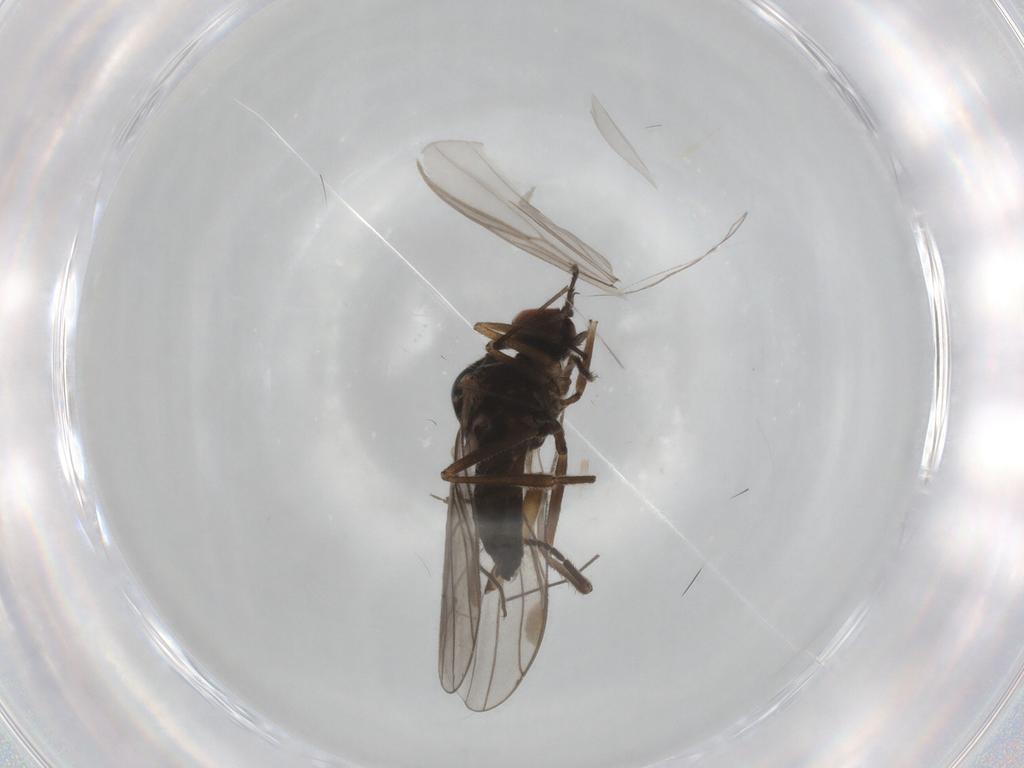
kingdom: Animalia
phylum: Arthropoda
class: Insecta
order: Diptera
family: Hybotidae
